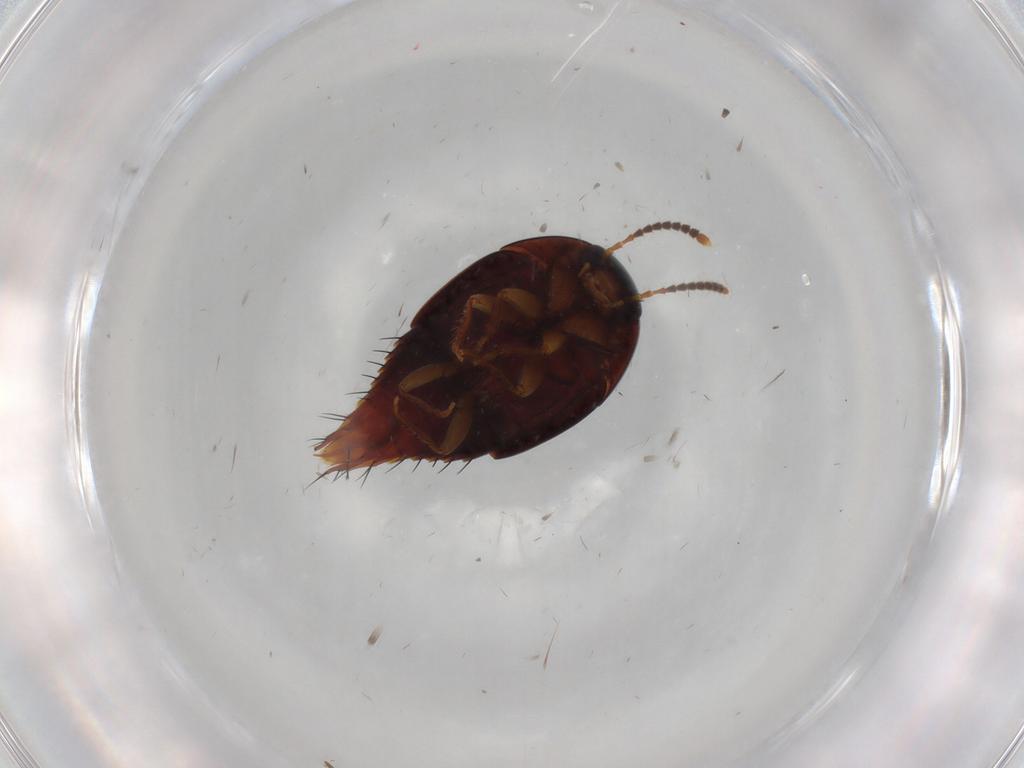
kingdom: Animalia
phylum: Arthropoda
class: Insecta
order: Coleoptera
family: Staphylinidae
